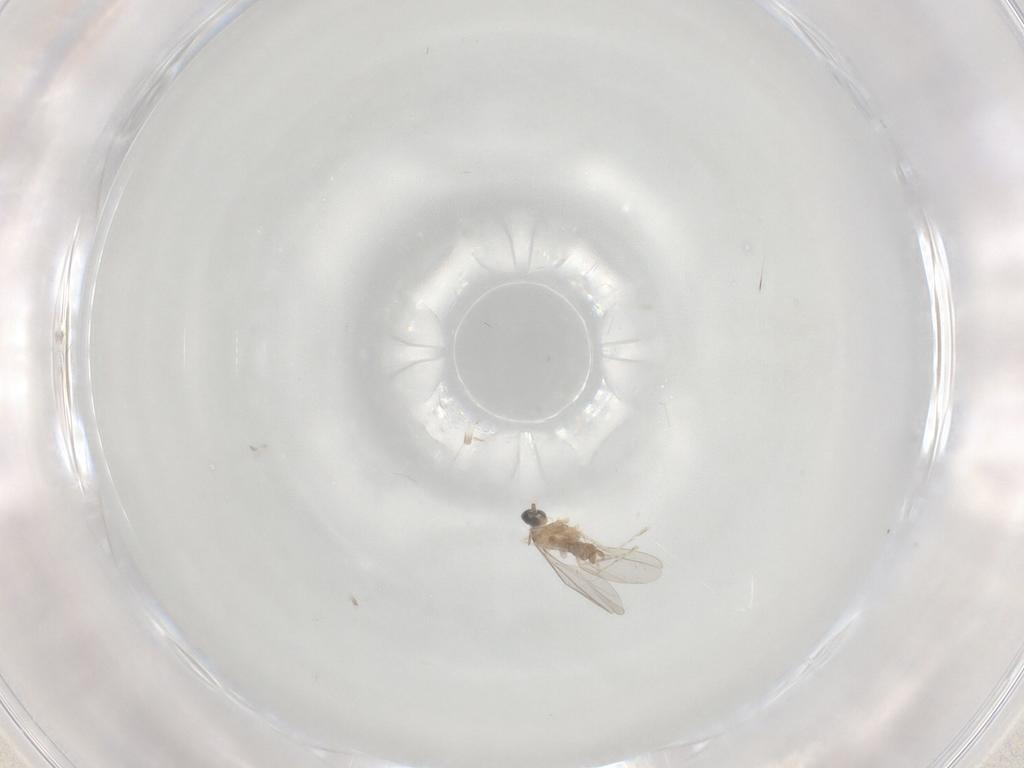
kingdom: Animalia
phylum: Arthropoda
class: Insecta
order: Diptera
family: Cecidomyiidae
